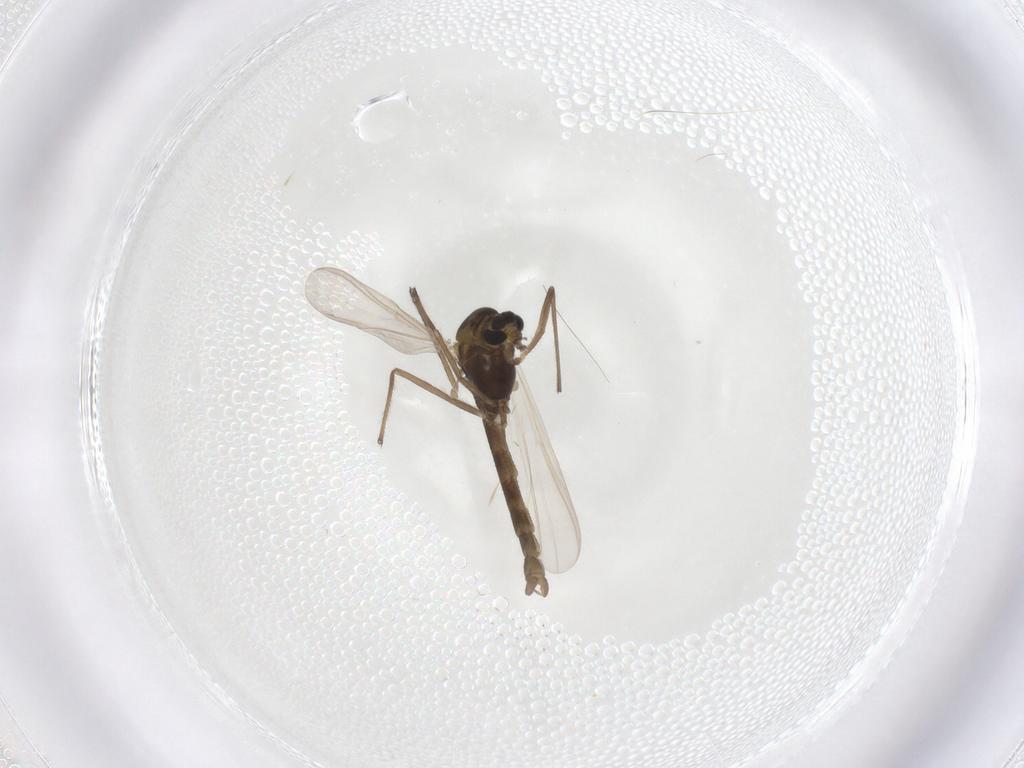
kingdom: Animalia
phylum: Arthropoda
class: Insecta
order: Diptera
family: Chironomidae
